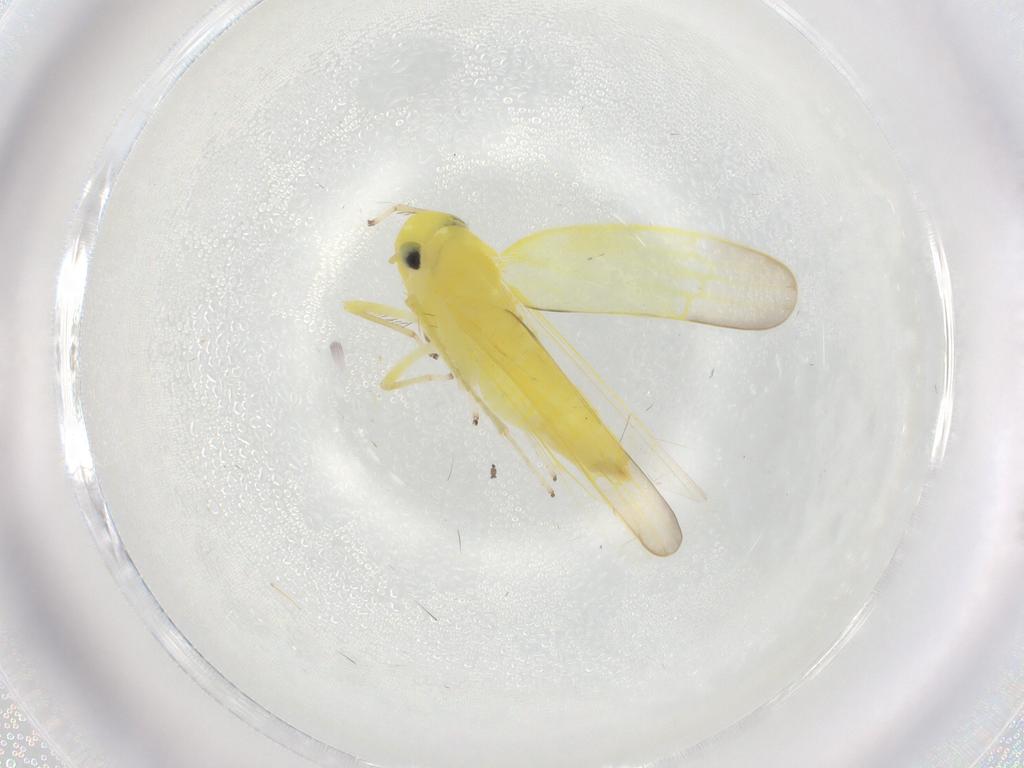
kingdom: Animalia
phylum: Arthropoda
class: Insecta
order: Hemiptera
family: Cicadellidae
